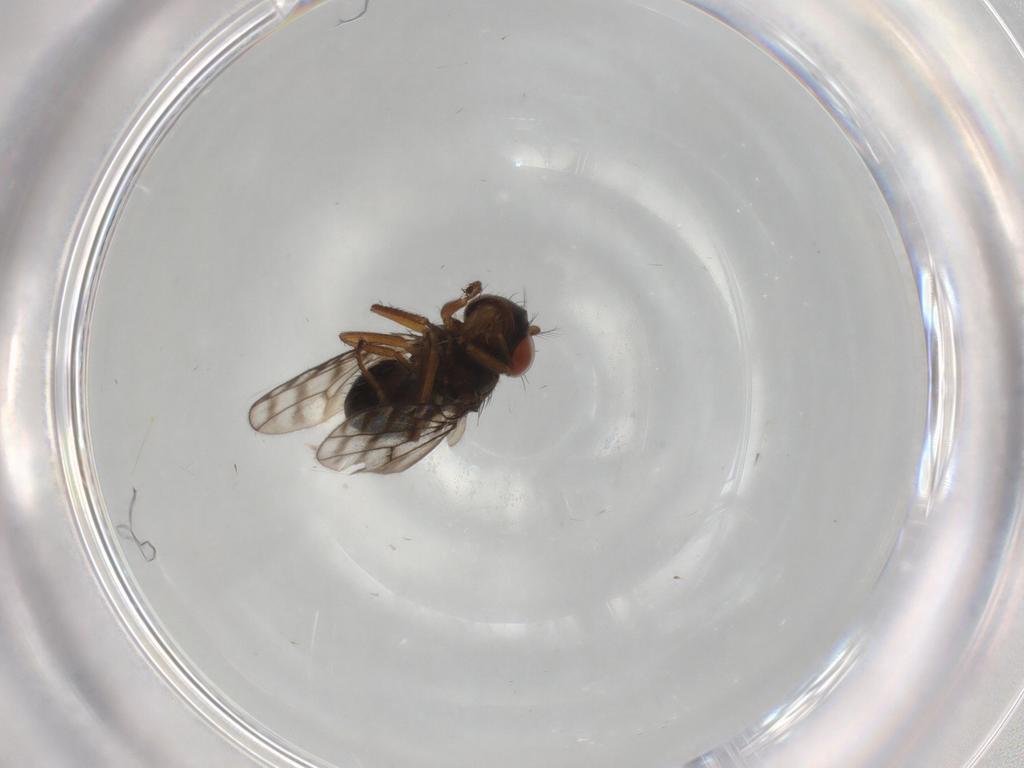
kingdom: Animalia
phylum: Arthropoda
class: Insecta
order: Diptera
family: Ephydridae
